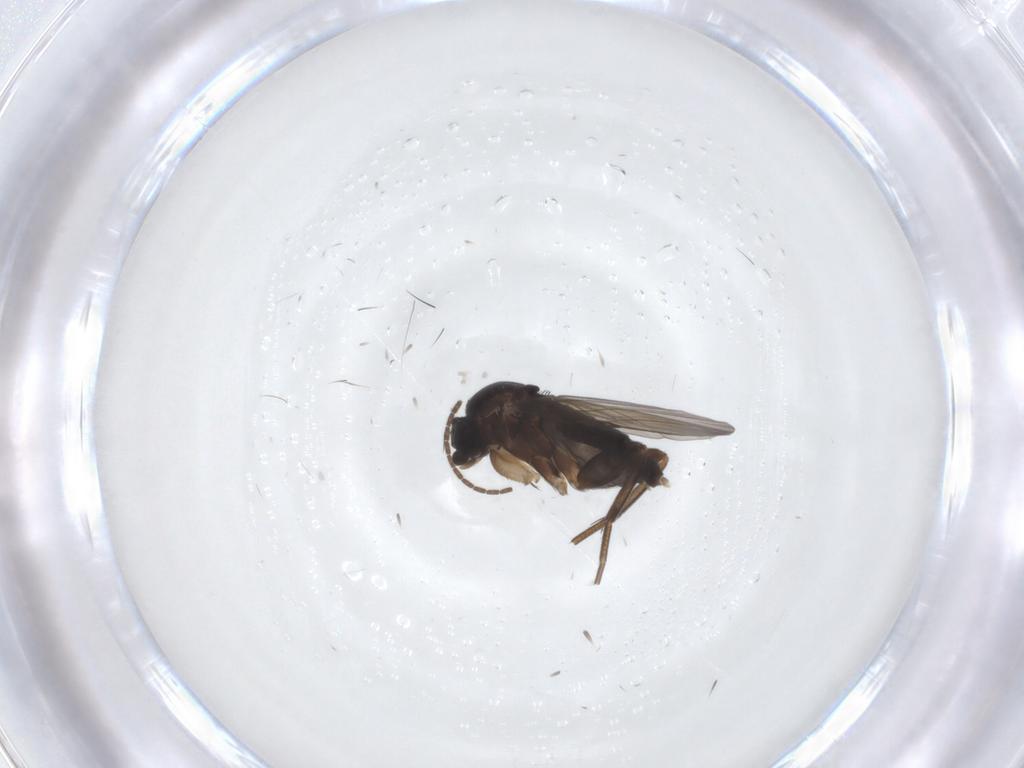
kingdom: Animalia
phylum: Arthropoda
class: Insecta
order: Diptera
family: Phoridae
